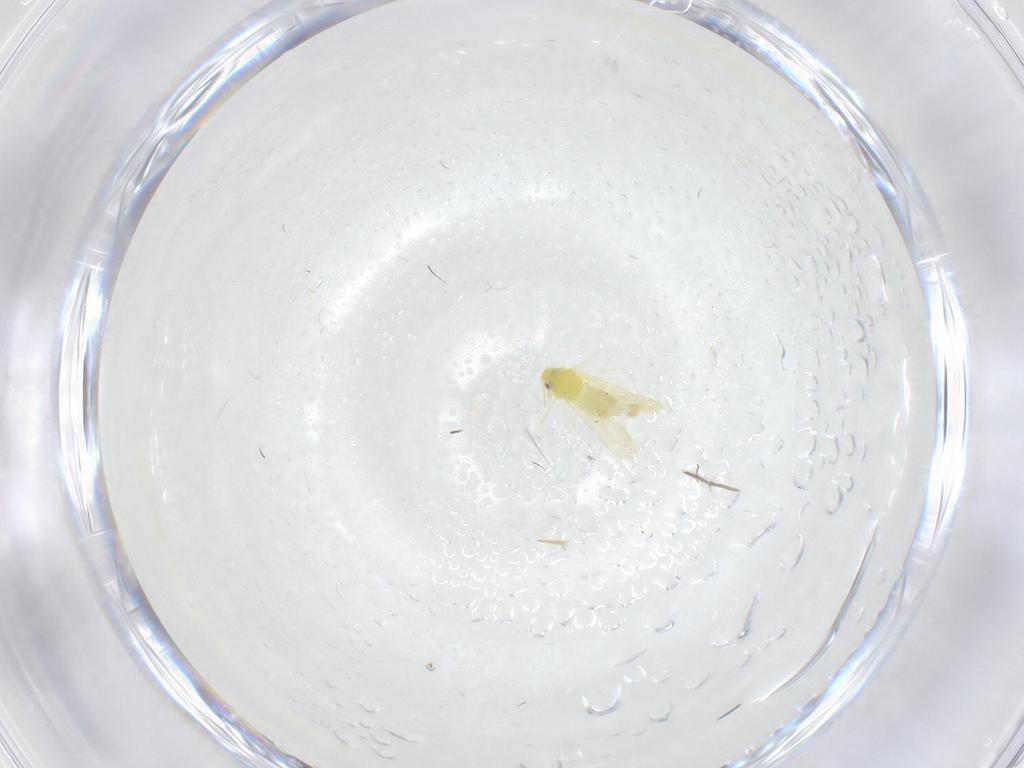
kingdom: Animalia
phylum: Arthropoda
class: Insecta
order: Hemiptera
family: Aleyrodidae
